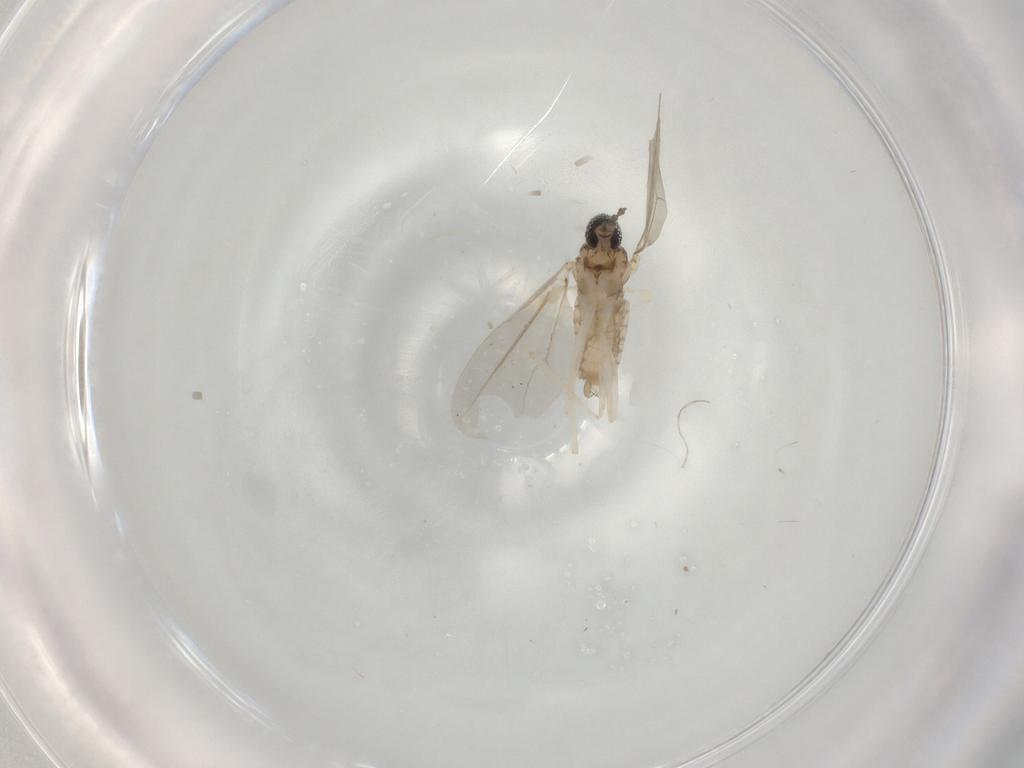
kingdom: Animalia
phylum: Arthropoda
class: Insecta
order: Diptera
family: Cecidomyiidae
